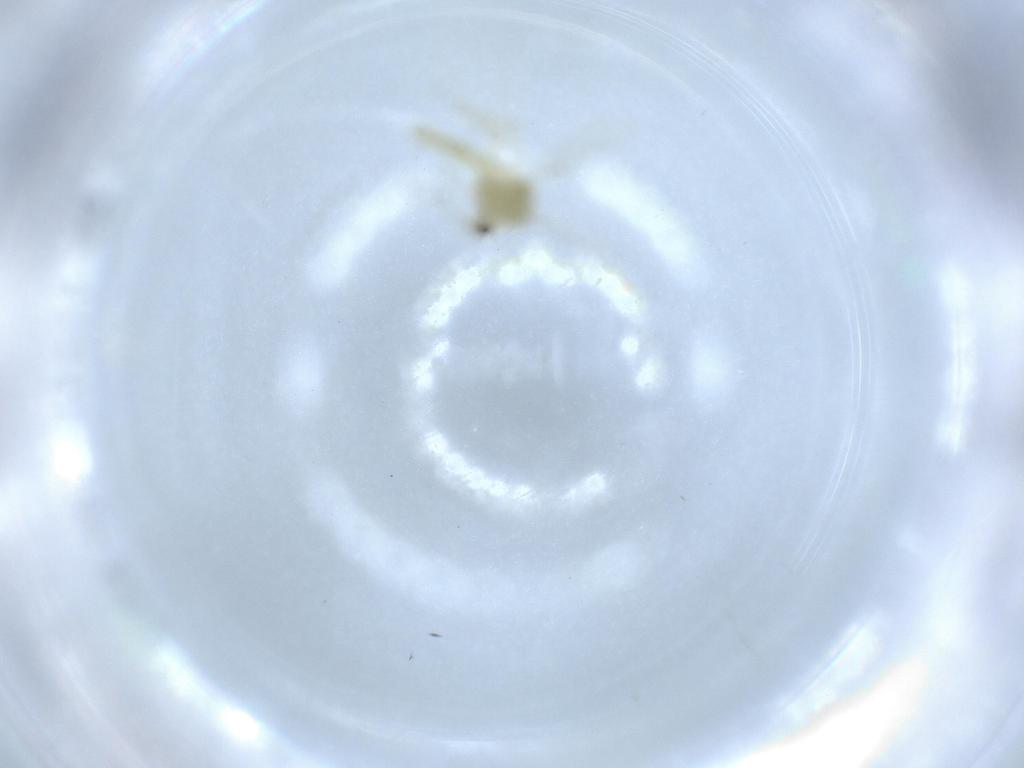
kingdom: Animalia
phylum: Arthropoda
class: Insecta
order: Diptera
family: Chironomidae
